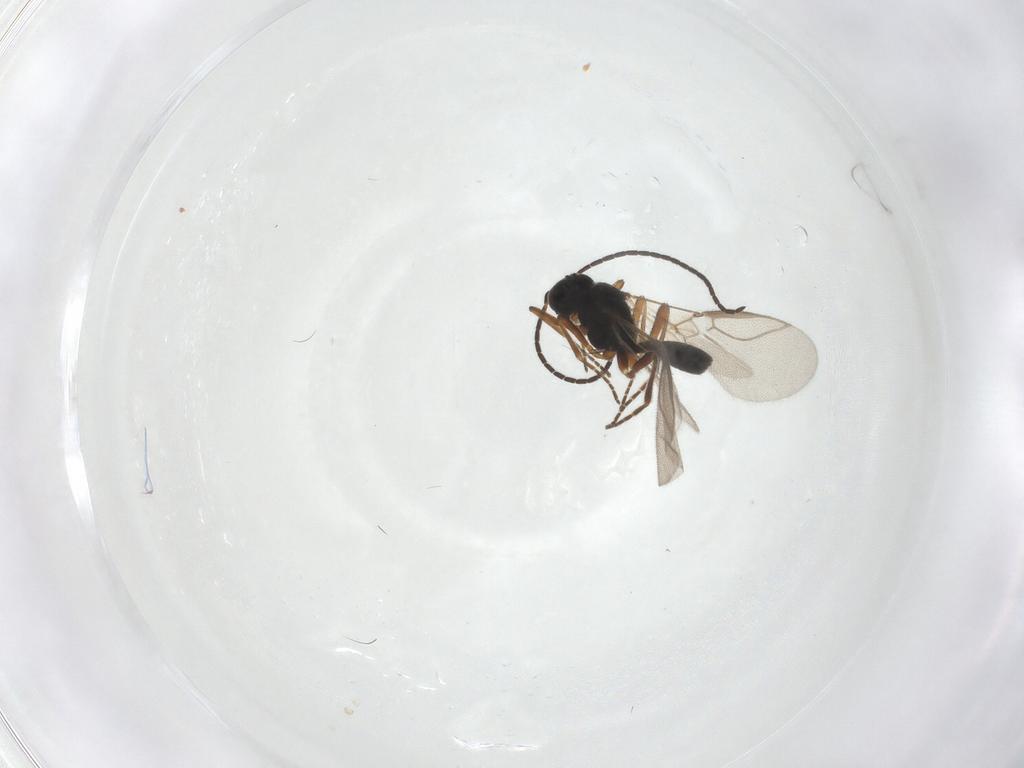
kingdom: Animalia
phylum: Arthropoda
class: Insecta
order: Hymenoptera
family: Braconidae
